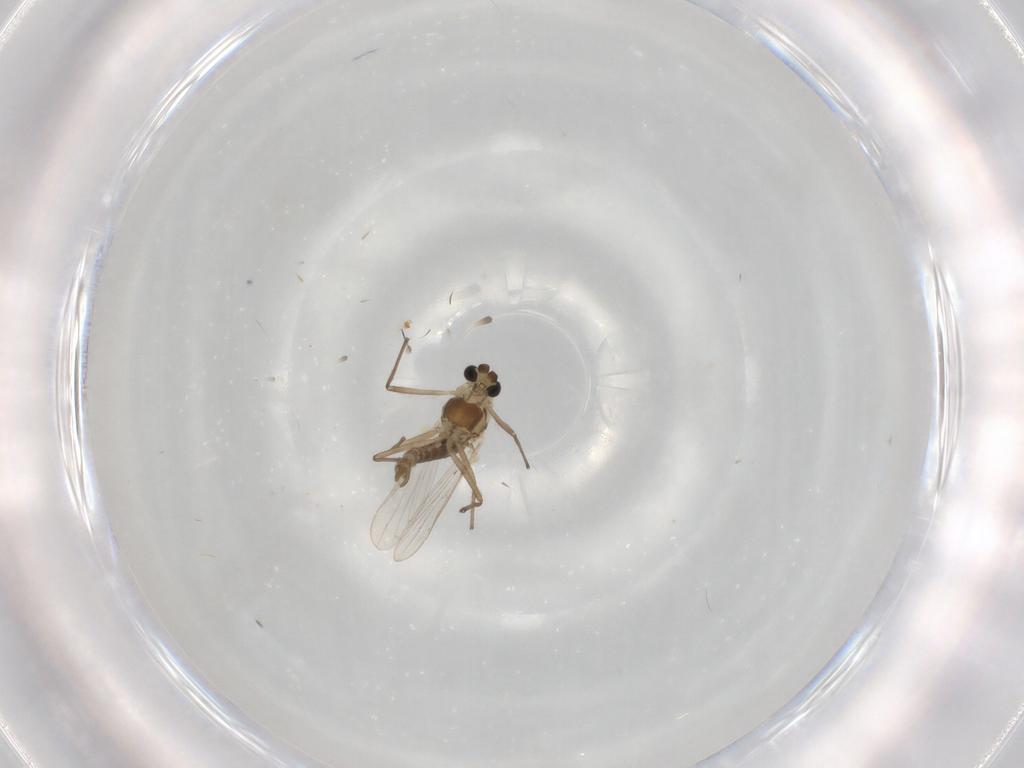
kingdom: Animalia
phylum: Arthropoda
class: Insecta
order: Diptera
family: Chironomidae
